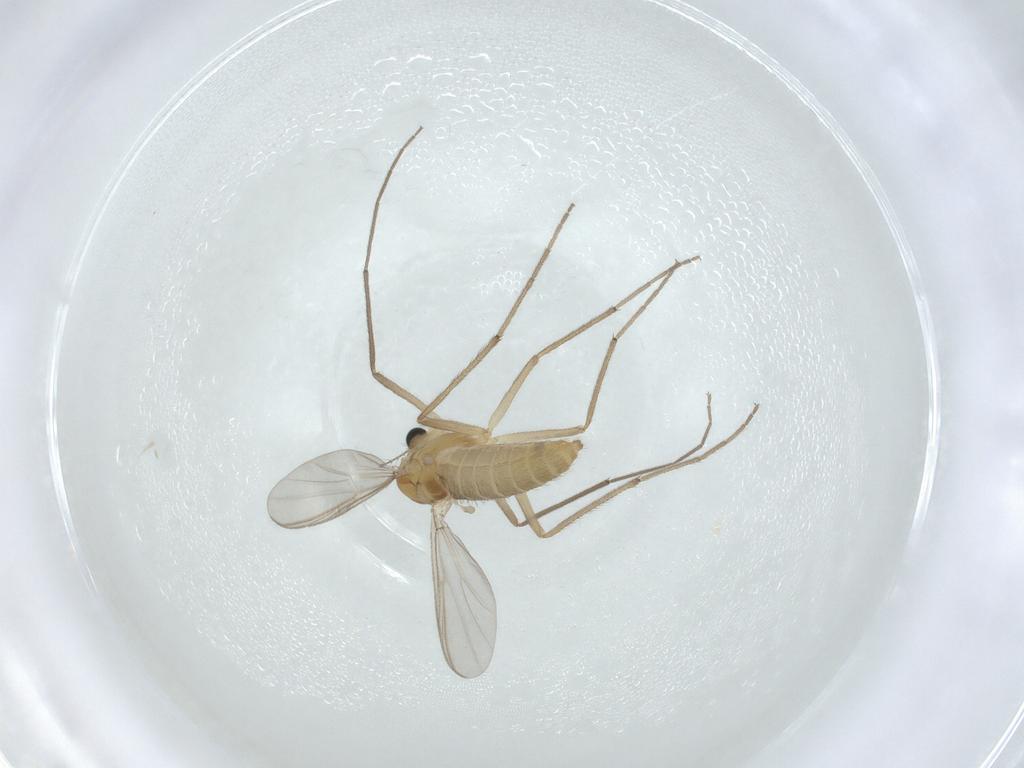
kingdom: Animalia
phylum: Arthropoda
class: Insecta
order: Diptera
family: Chironomidae
